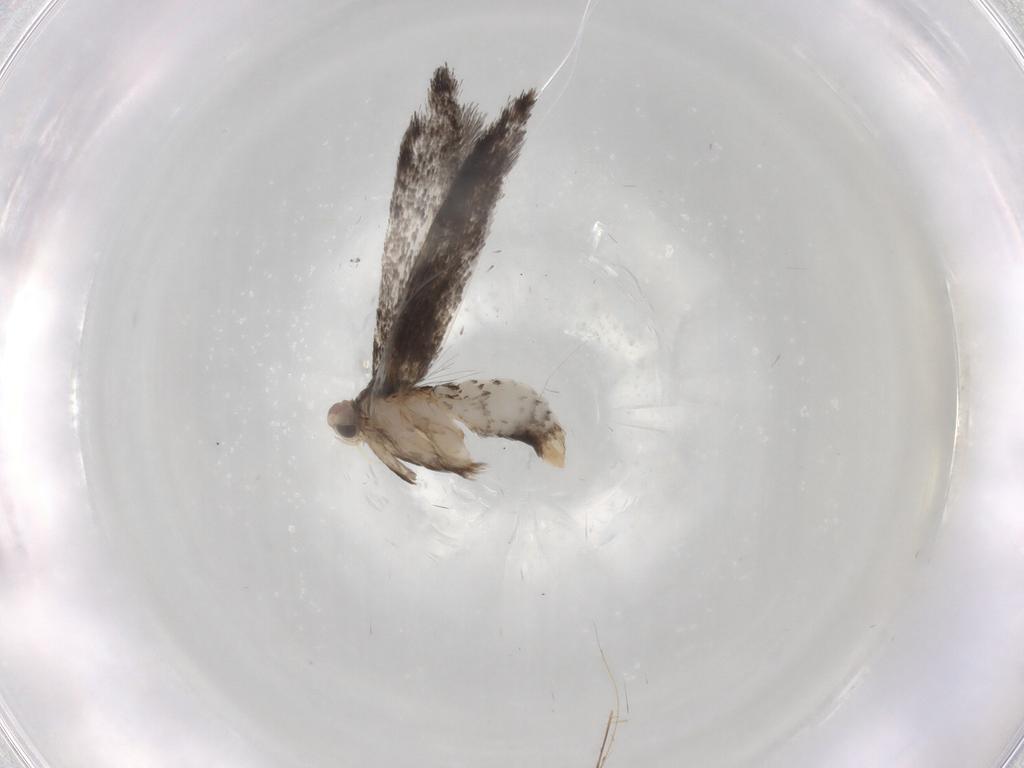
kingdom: Animalia
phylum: Arthropoda
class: Insecta
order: Lepidoptera
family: Tineidae
